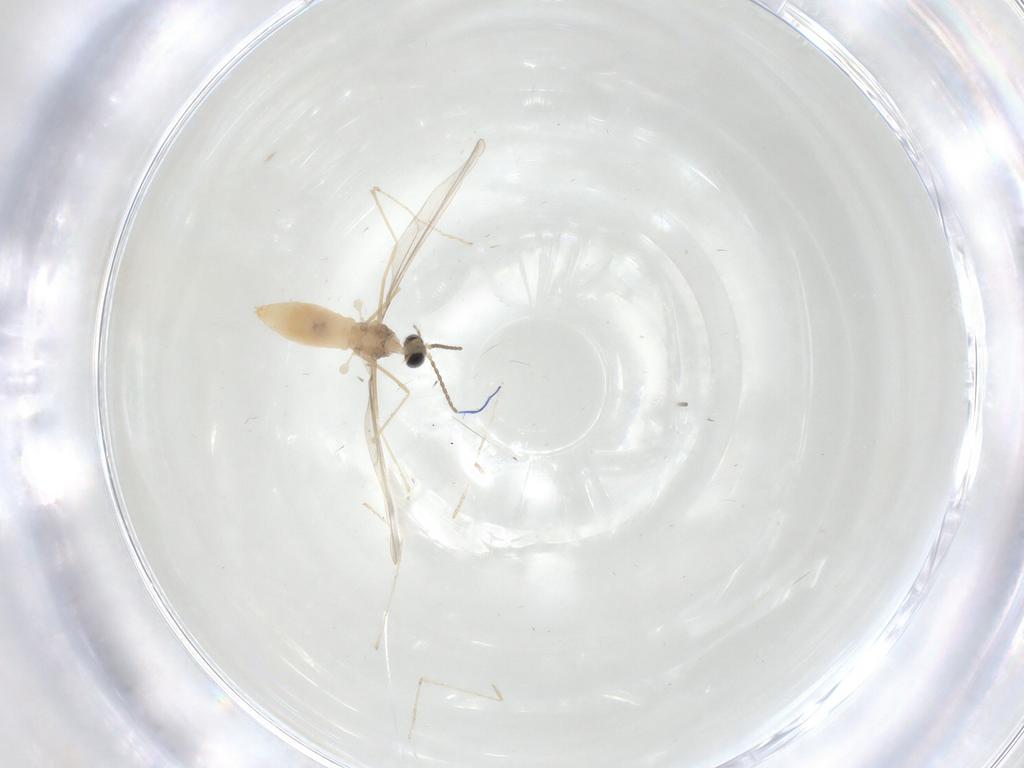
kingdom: Animalia
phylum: Arthropoda
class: Insecta
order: Diptera
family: Cecidomyiidae
